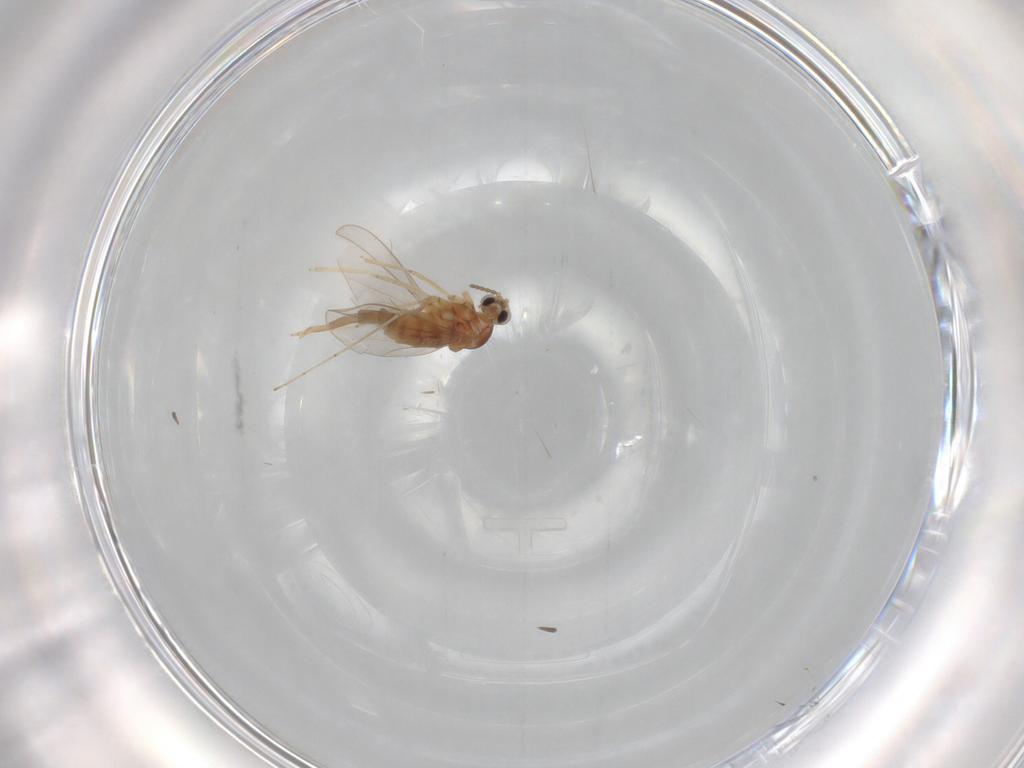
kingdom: Animalia
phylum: Arthropoda
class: Insecta
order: Diptera
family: Cecidomyiidae
